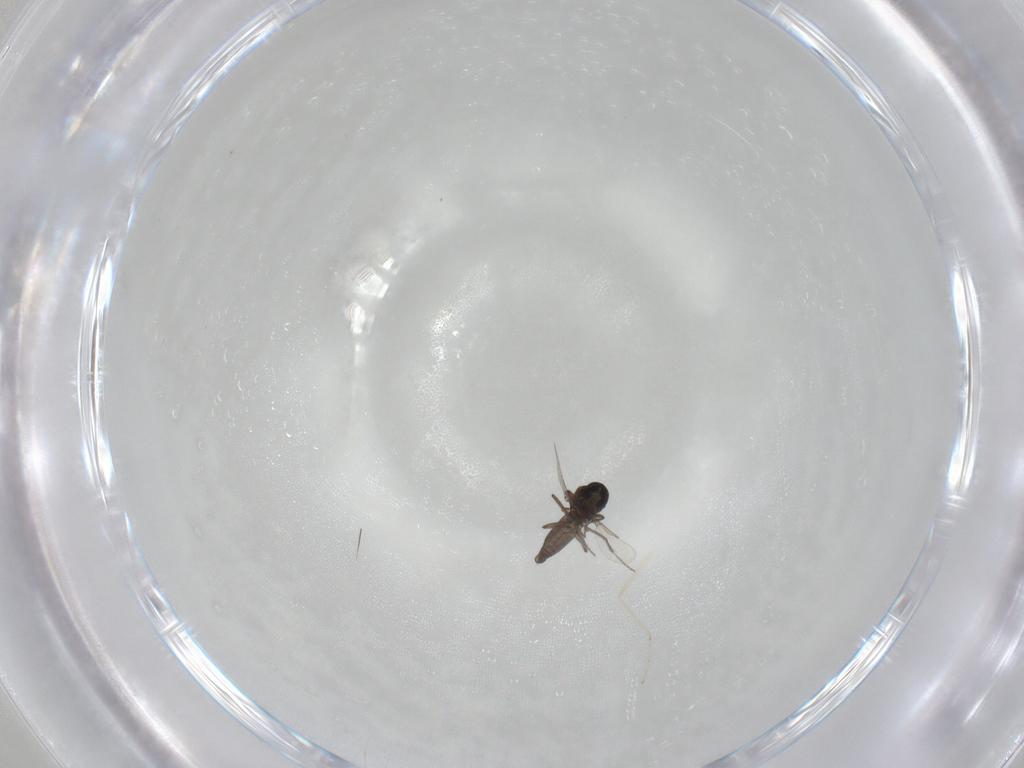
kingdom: Animalia
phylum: Arthropoda
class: Insecta
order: Diptera
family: Ceratopogonidae
